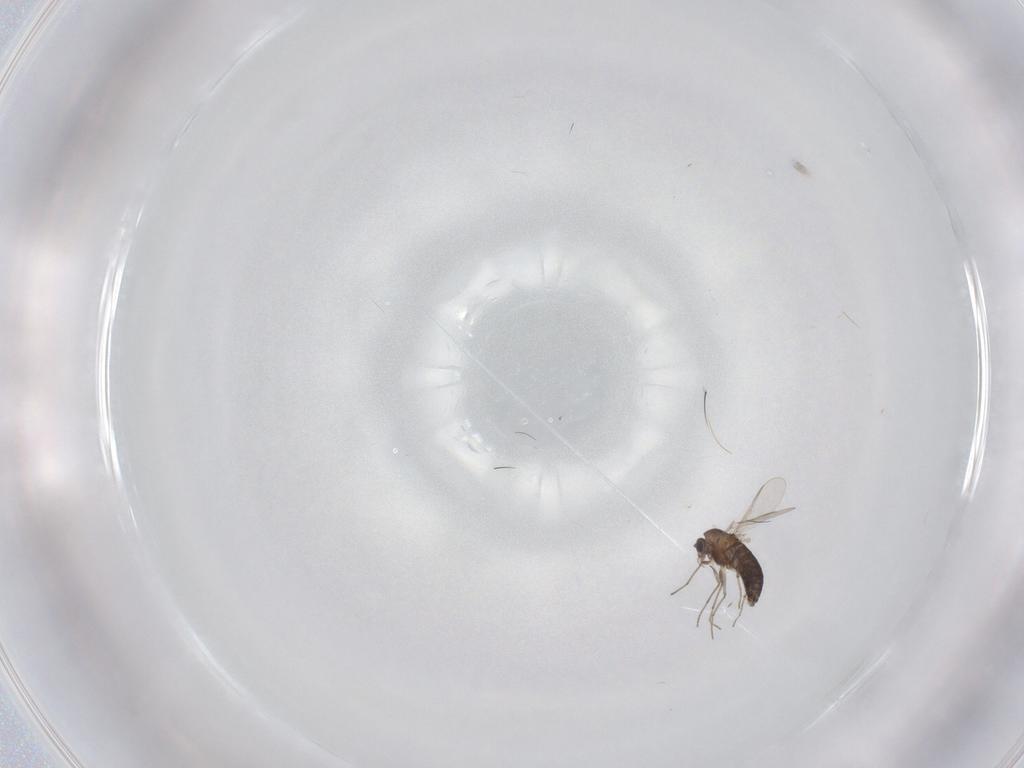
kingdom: Animalia
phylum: Arthropoda
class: Insecta
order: Diptera
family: Chironomidae
